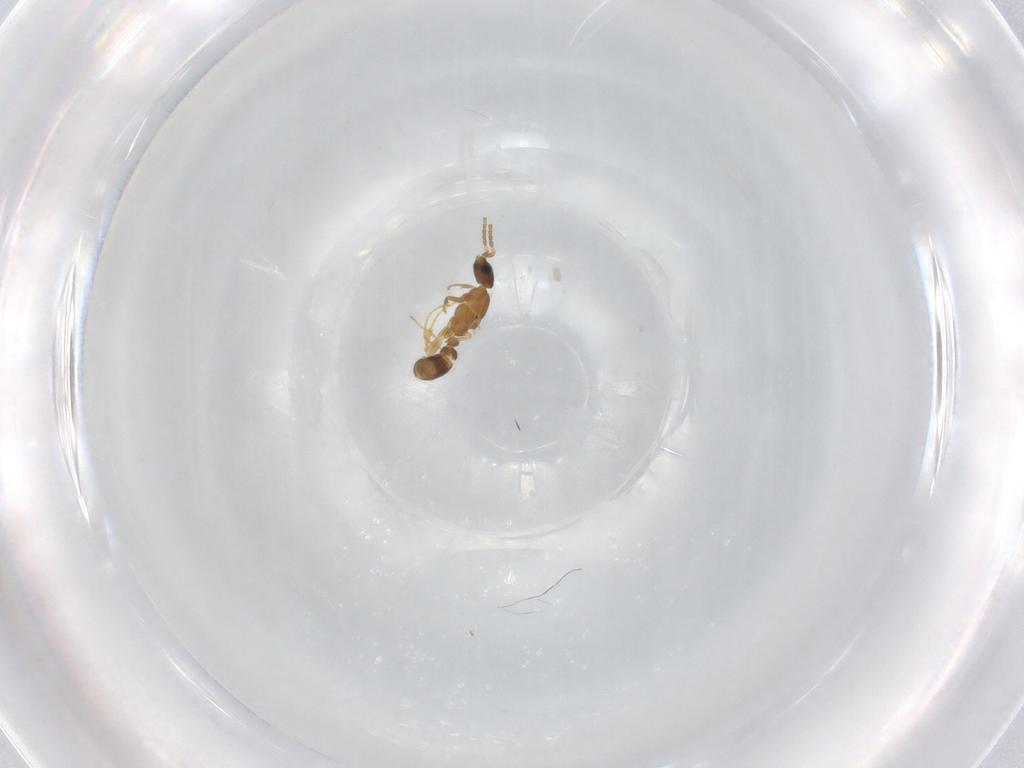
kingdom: Animalia
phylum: Arthropoda
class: Insecta
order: Hymenoptera
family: Formicidae
